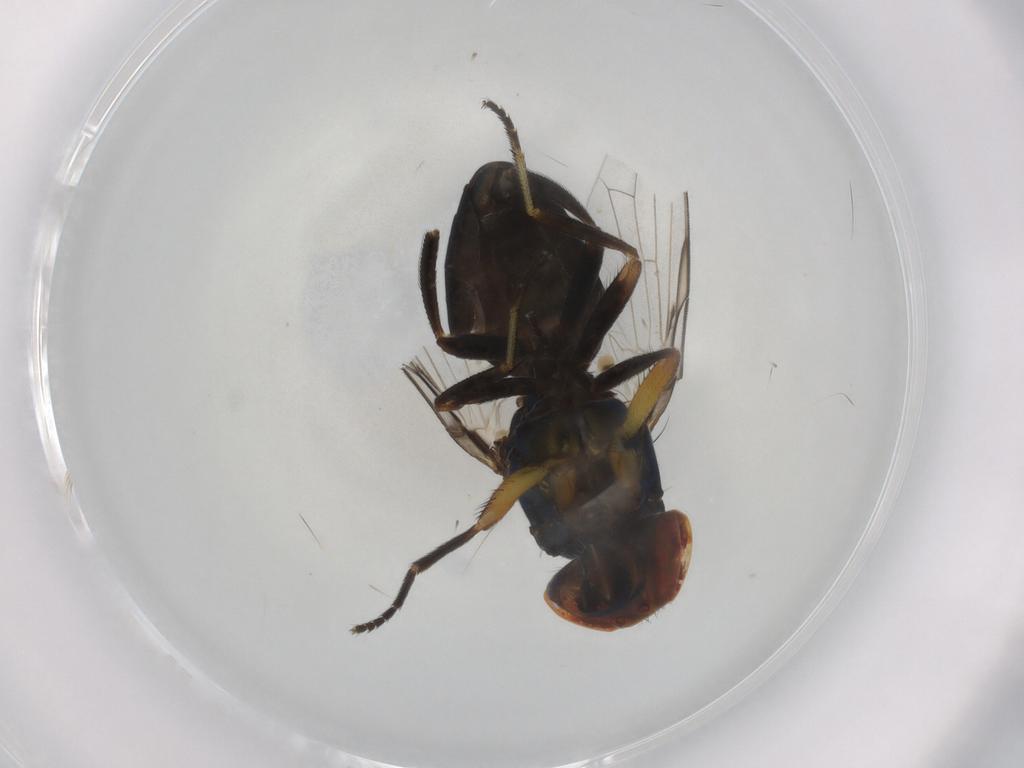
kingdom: Animalia
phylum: Arthropoda
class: Insecta
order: Diptera
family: Ulidiidae
